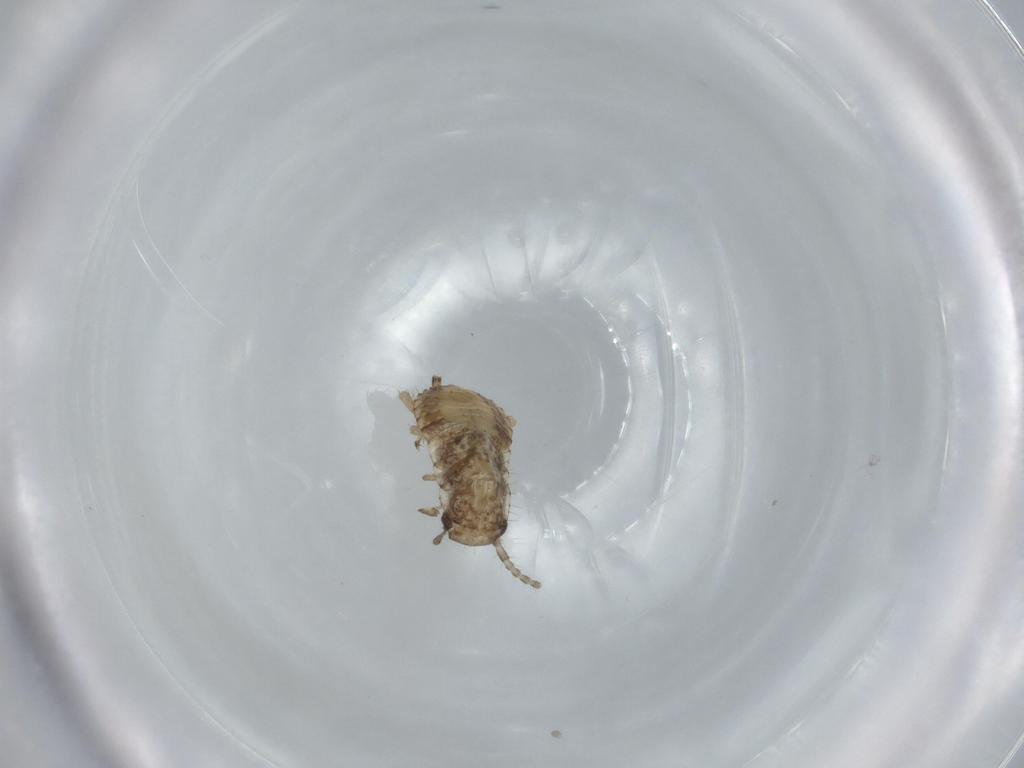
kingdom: Animalia
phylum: Arthropoda
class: Insecta
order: Blattodea
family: Ectobiidae
